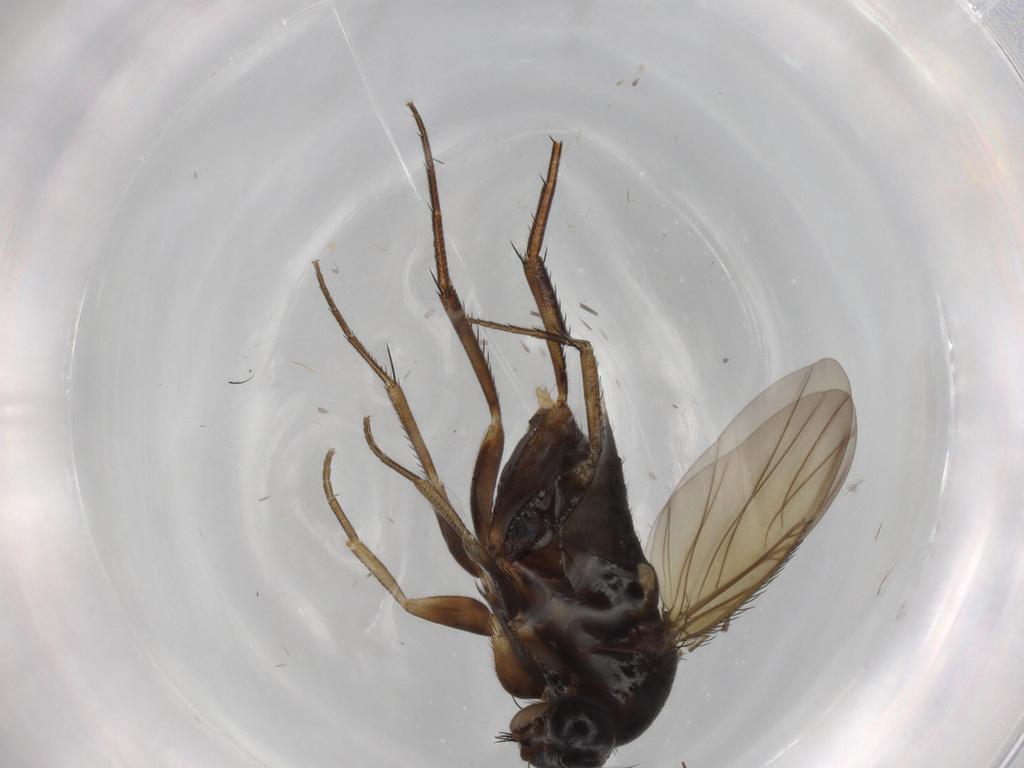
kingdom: Animalia
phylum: Arthropoda
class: Insecta
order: Diptera
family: Phoridae
